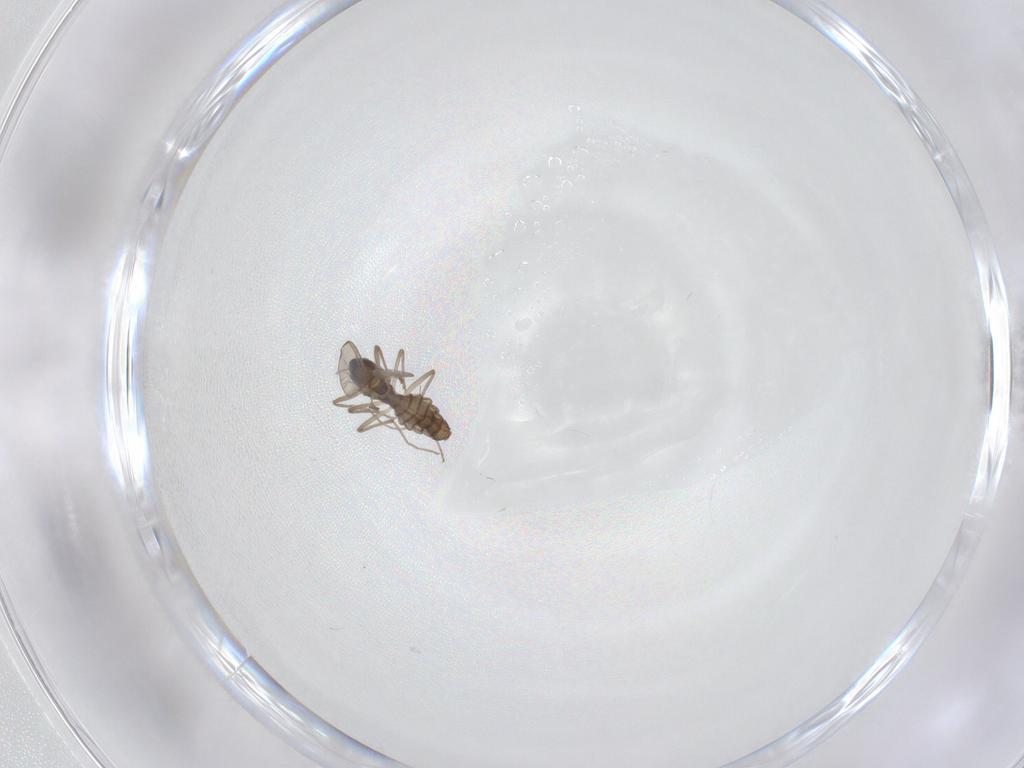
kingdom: Animalia
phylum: Arthropoda
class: Insecta
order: Diptera
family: Chironomidae
